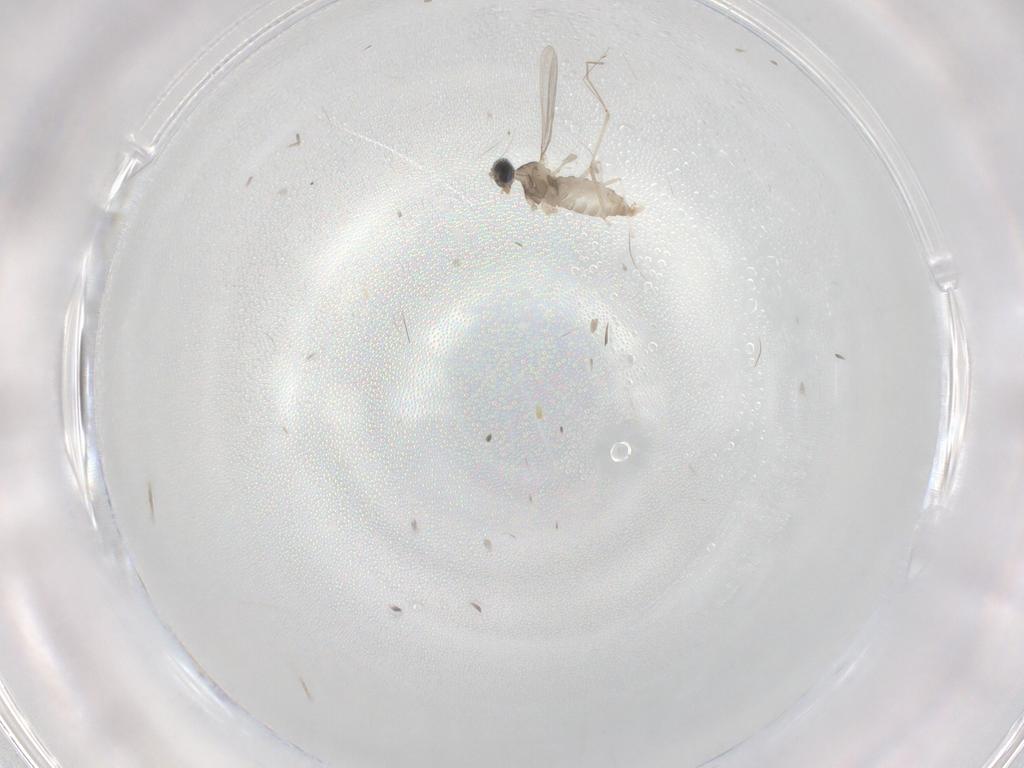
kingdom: Animalia
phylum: Arthropoda
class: Insecta
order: Diptera
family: Cecidomyiidae
